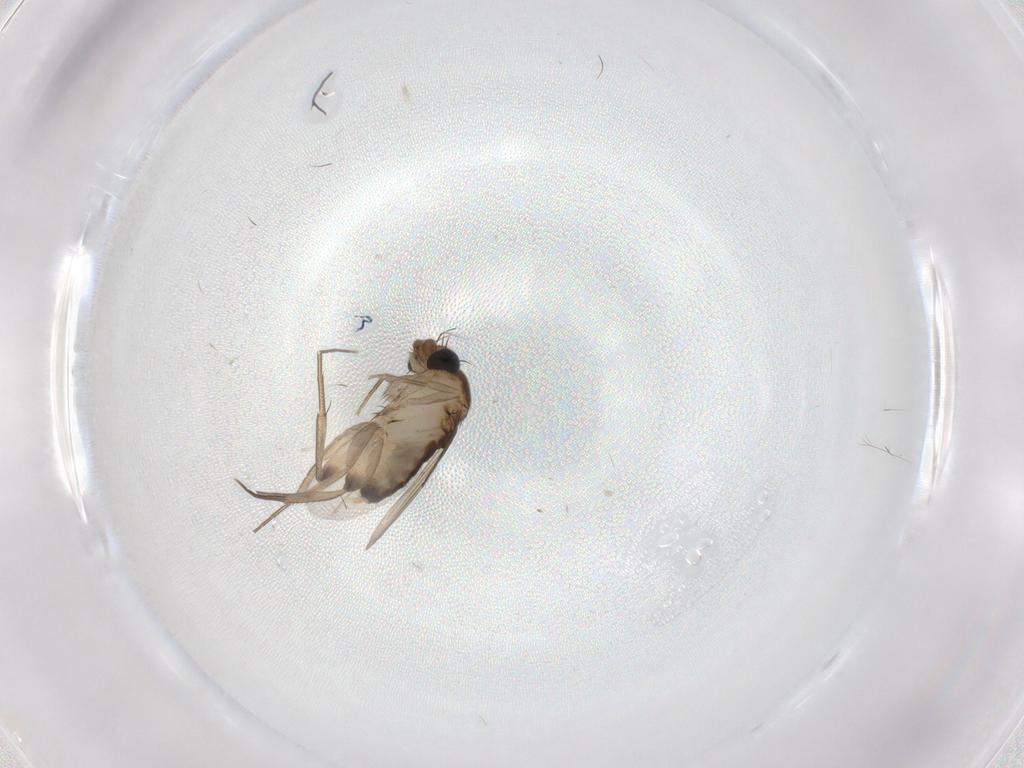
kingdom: Animalia
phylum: Arthropoda
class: Insecta
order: Diptera
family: Phoridae
